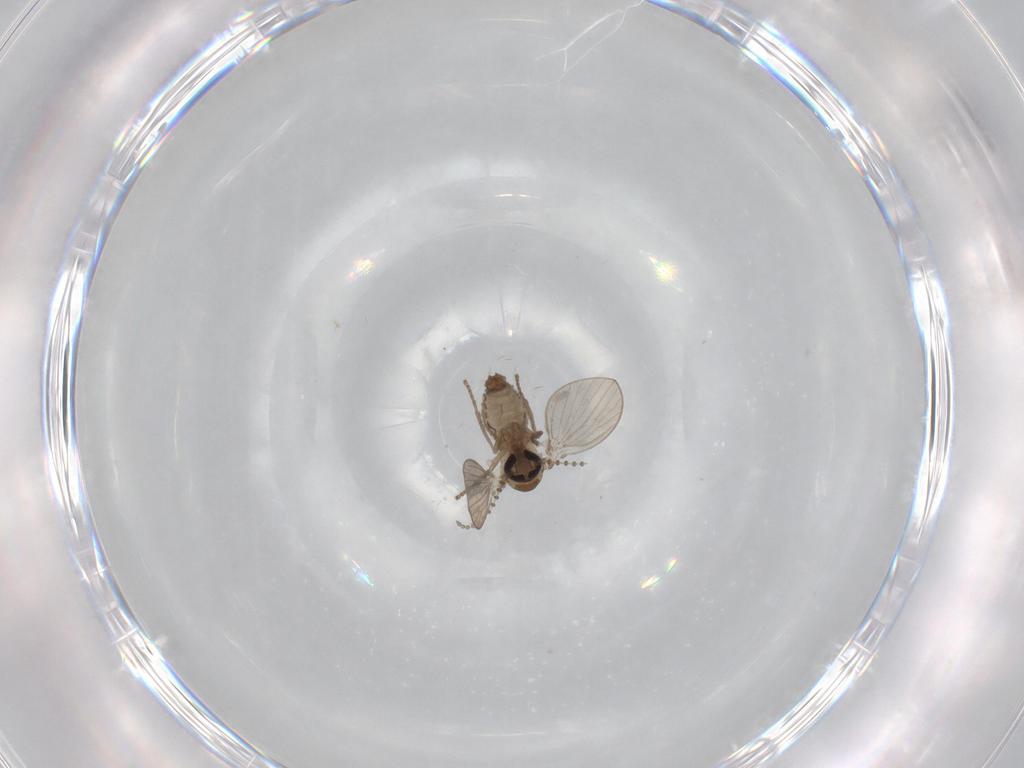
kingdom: Animalia
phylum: Arthropoda
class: Insecta
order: Diptera
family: Psychodidae
